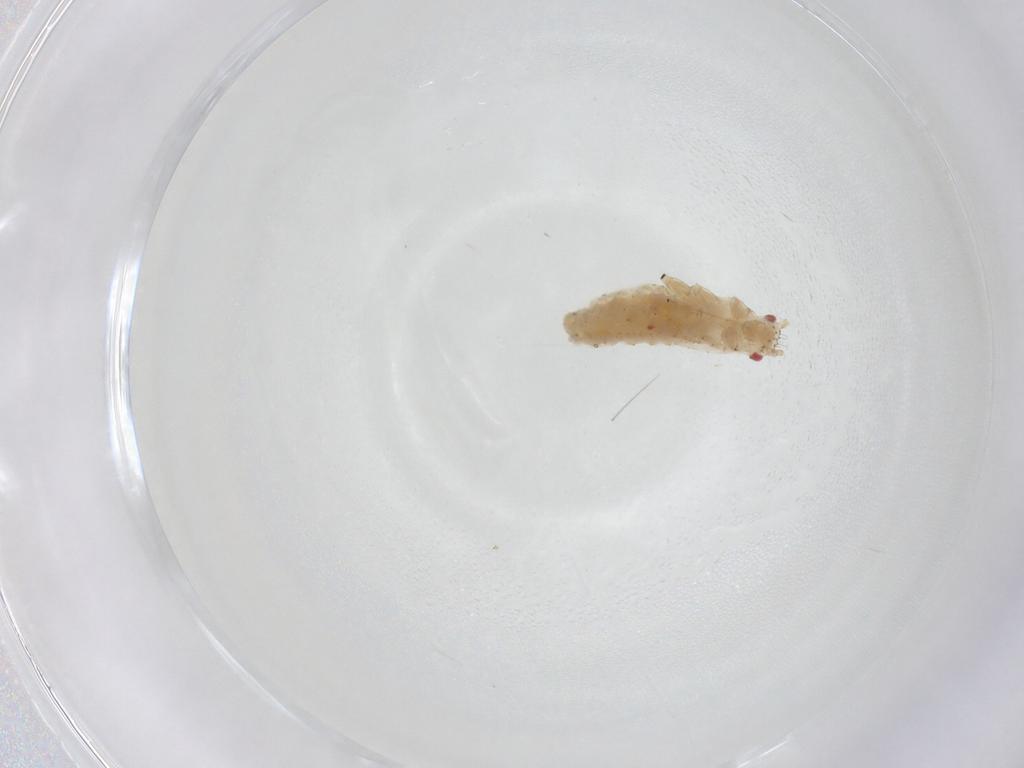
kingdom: Animalia
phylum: Arthropoda
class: Insecta
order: Hemiptera
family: Aphididae
